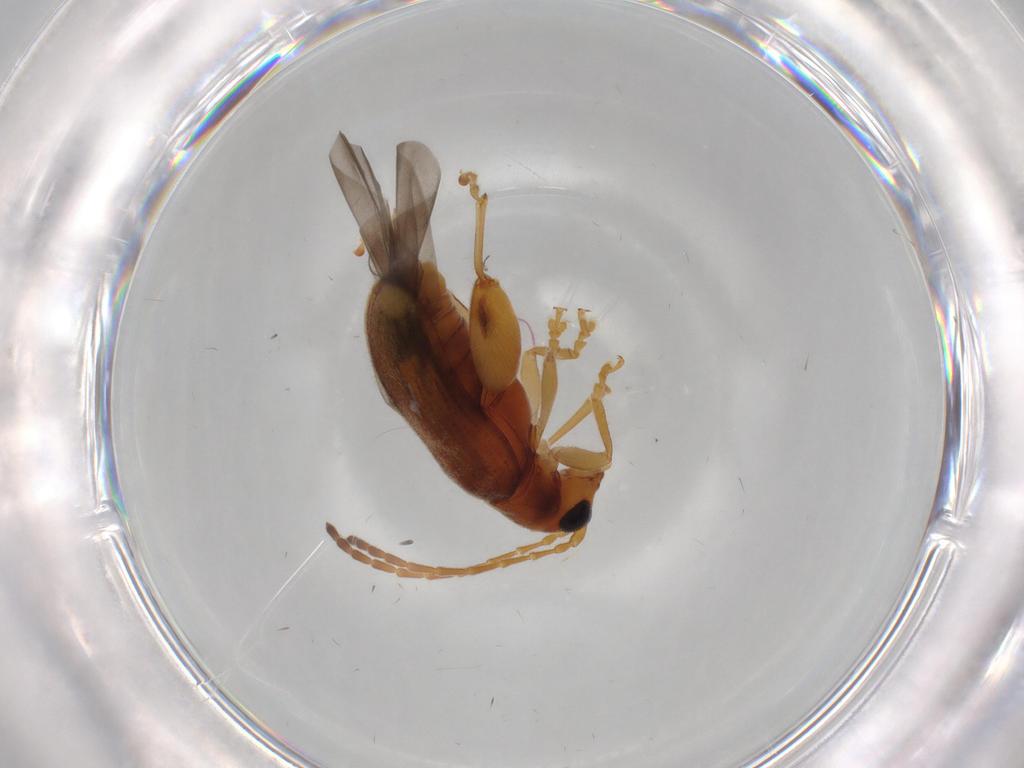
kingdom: Animalia
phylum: Arthropoda
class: Insecta
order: Coleoptera
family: Chrysomelidae
